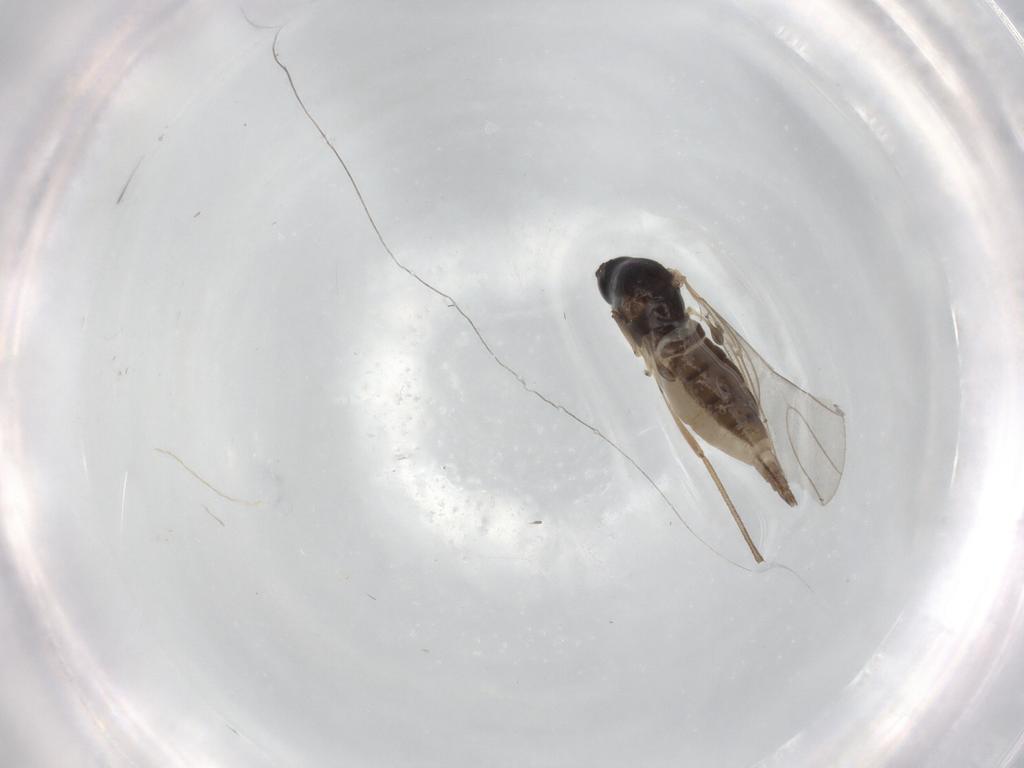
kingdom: Animalia
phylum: Arthropoda
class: Insecta
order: Diptera
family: Sciaridae
